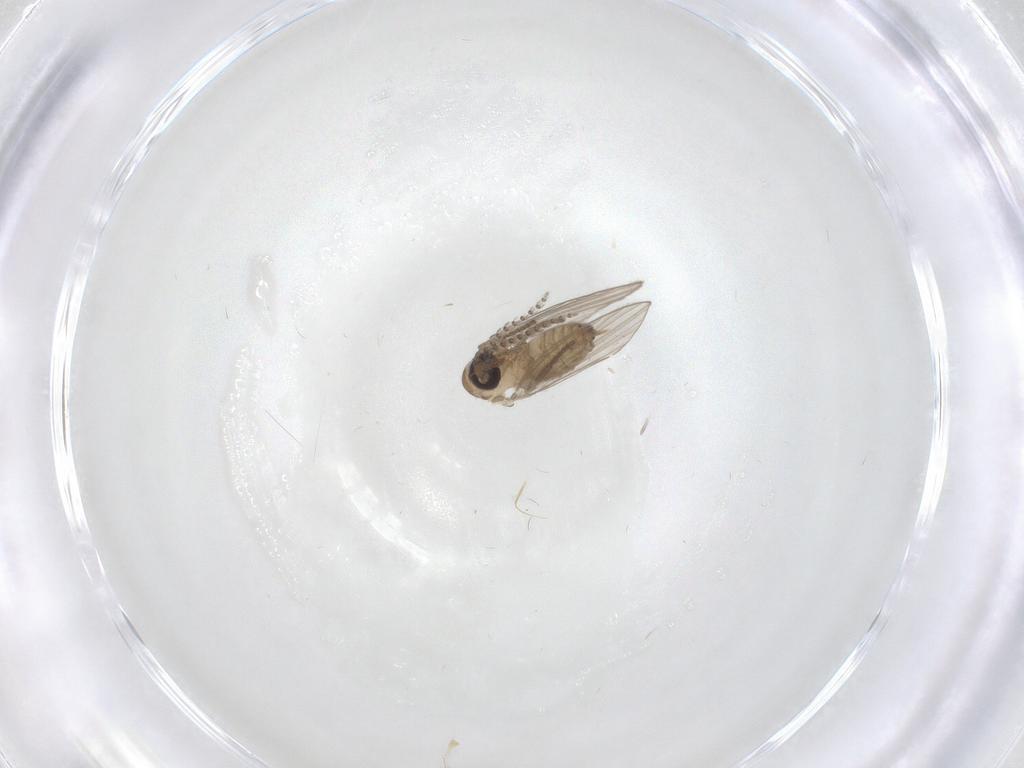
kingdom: Animalia
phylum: Arthropoda
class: Insecta
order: Diptera
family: Psychodidae
